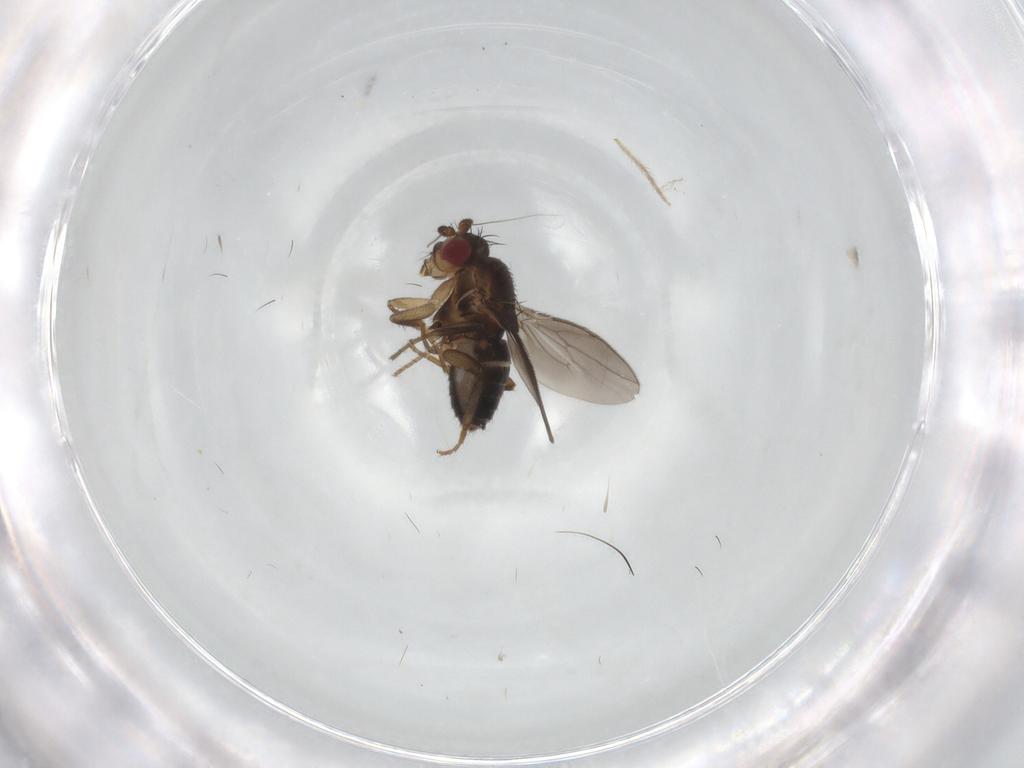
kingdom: Animalia
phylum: Arthropoda
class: Insecta
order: Diptera
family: Sphaeroceridae
